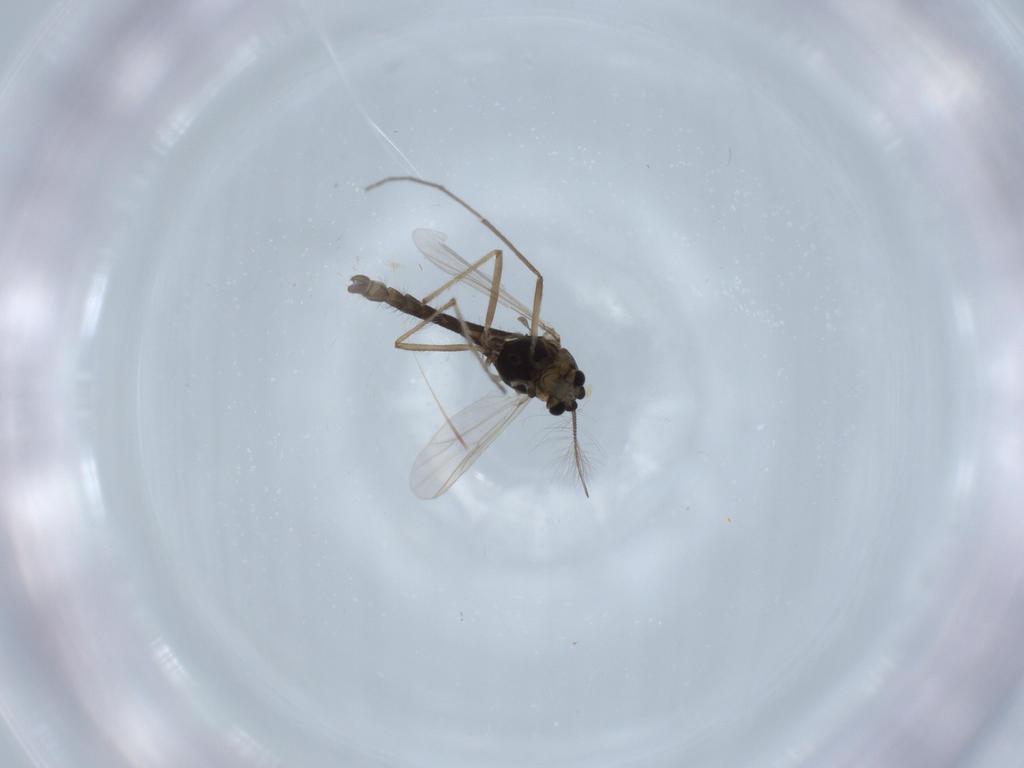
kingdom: Animalia
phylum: Arthropoda
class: Insecta
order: Diptera
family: Chironomidae
